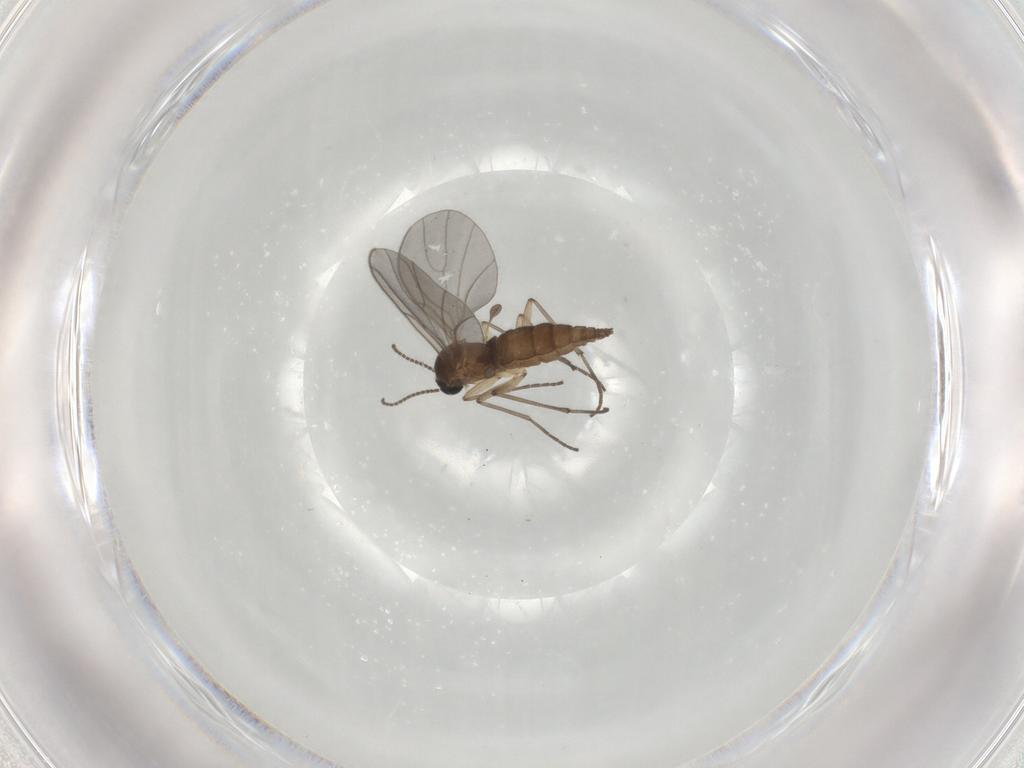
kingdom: Animalia
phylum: Arthropoda
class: Insecta
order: Diptera
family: Sciaridae
